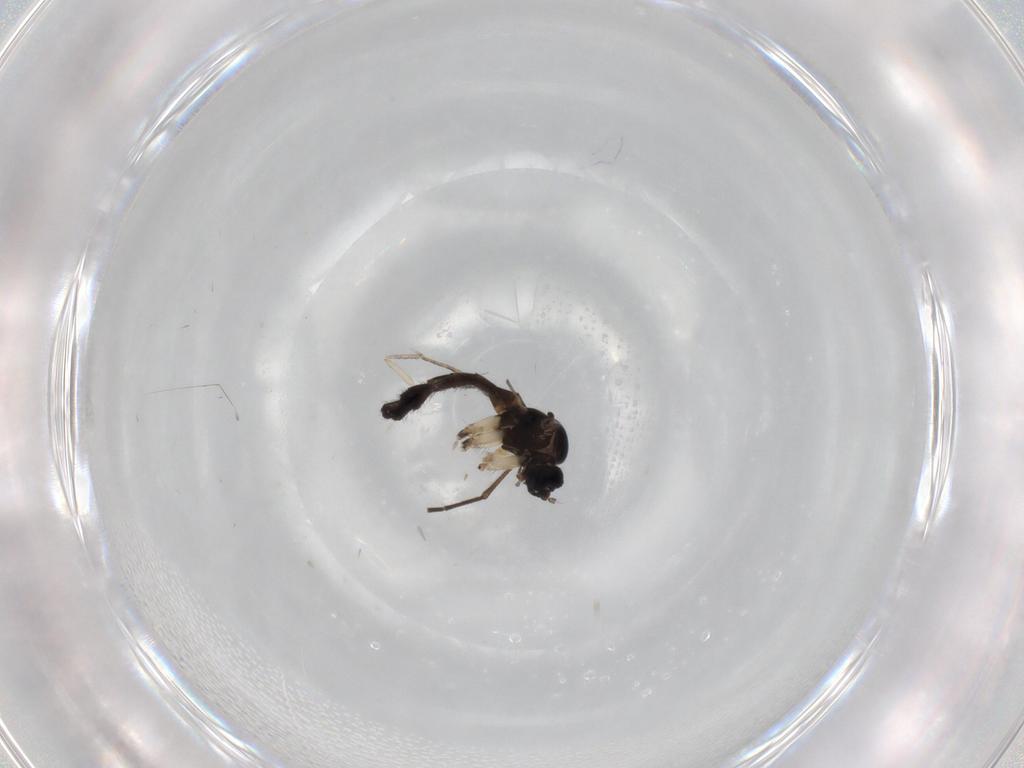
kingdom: Animalia
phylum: Arthropoda
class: Insecta
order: Diptera
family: Sciaridae
